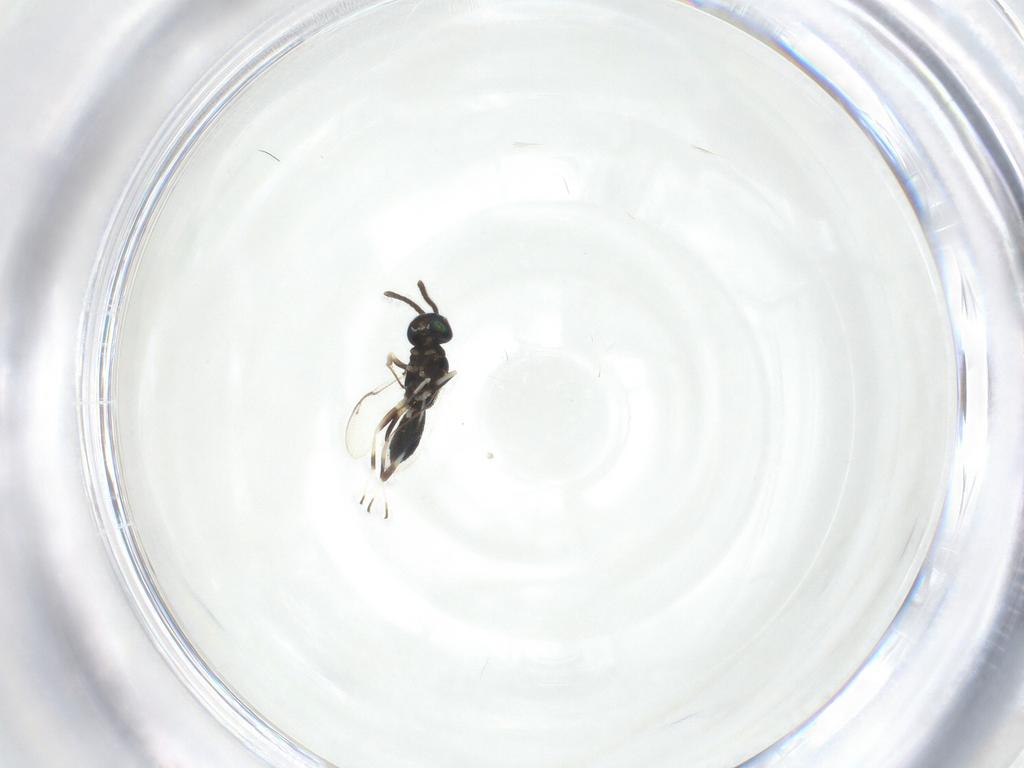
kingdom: Animalia
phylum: Arthropoda
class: Insecta
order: Hymenoptera
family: Eupelmidae
